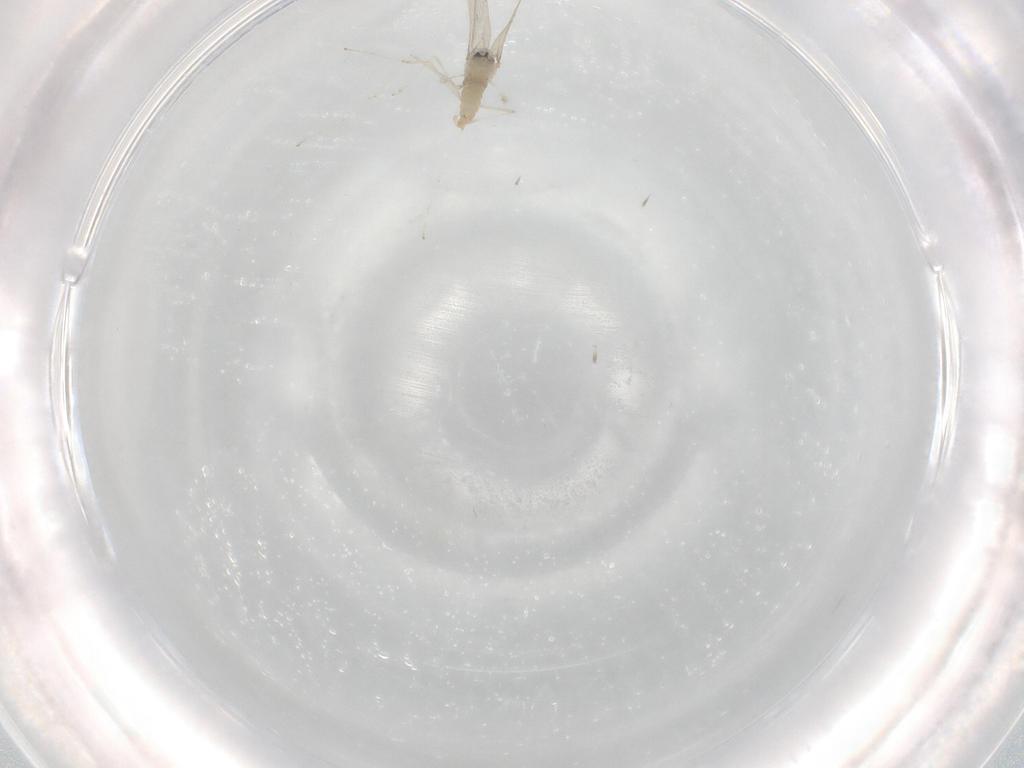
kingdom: Animalia
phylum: Arthropoda
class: Insecta
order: Diptera
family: Cecidomyiidae
